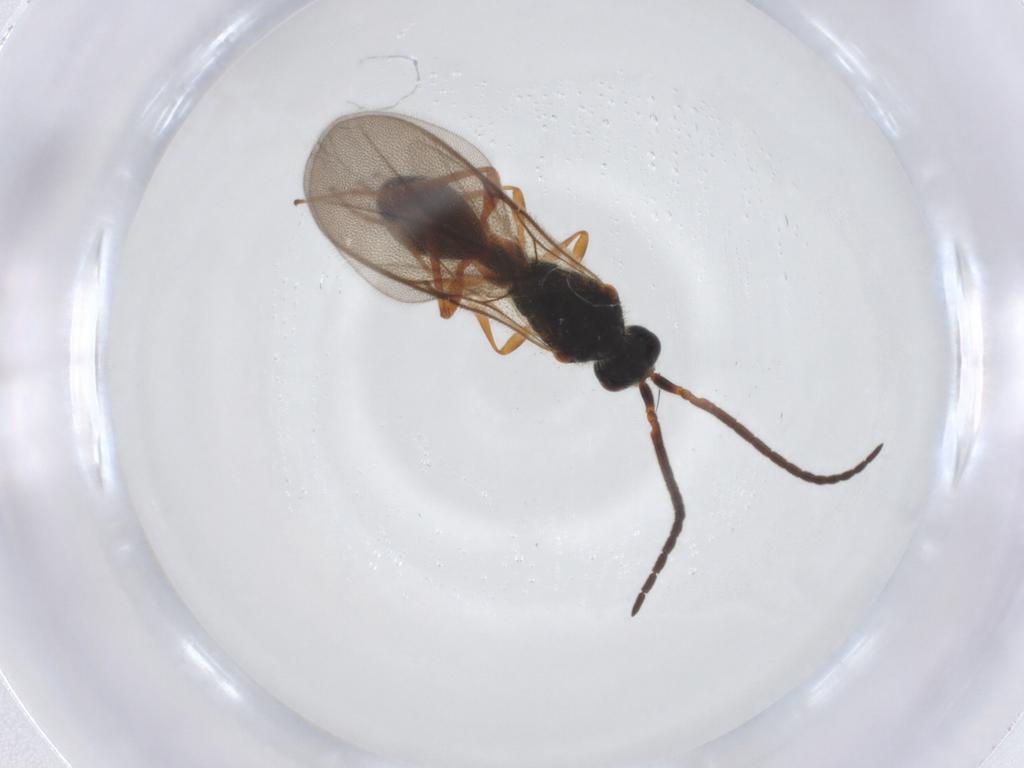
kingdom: Animalia
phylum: Arthropoda
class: Insecta
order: Hymenoptera
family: Diapriidae
